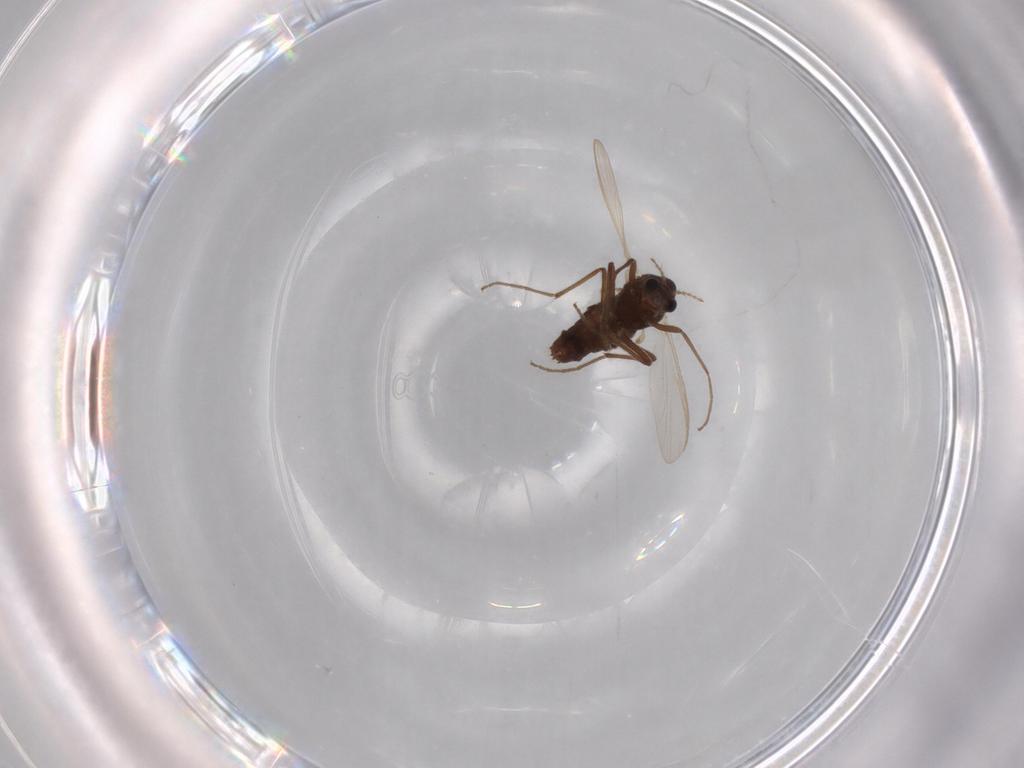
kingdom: Animalia
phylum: Arthropoda
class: Insecta
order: Diptera
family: Chironomidae
